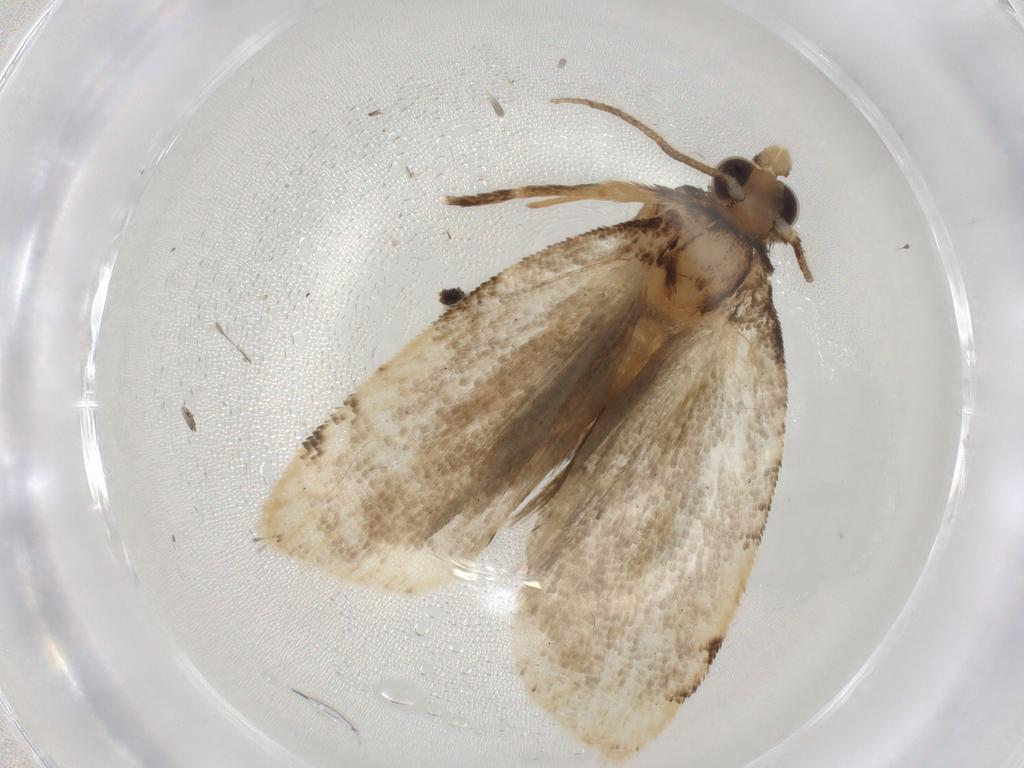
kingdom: Animalia
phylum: Arthropoda
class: Insecta
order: Lepidoptera
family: Tortricidae
